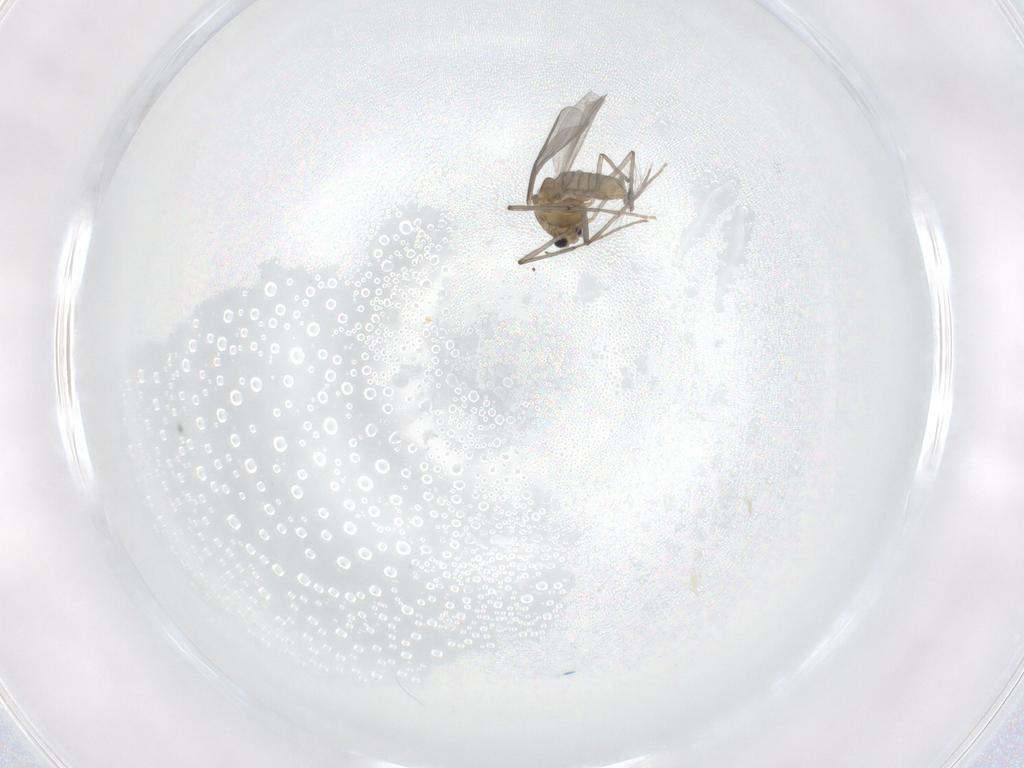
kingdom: Animalia
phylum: Arthropoda
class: Insecta
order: Diptera
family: Chironomidae
